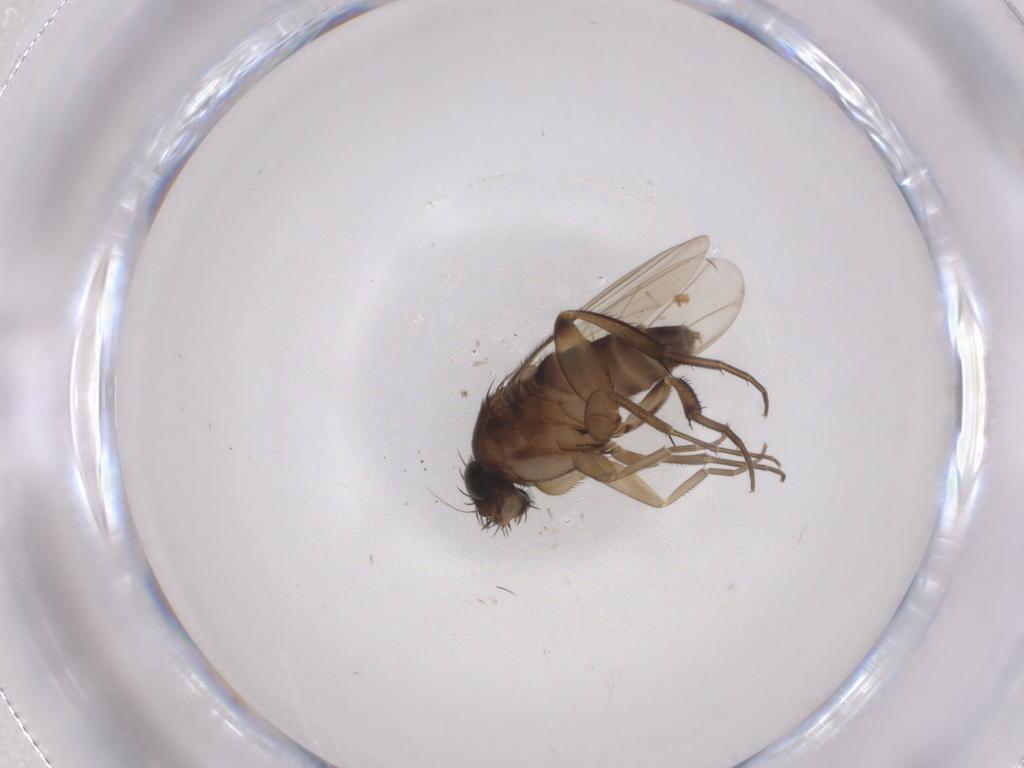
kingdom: Animalia
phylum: Arthropoda
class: Insecta
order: Diptera
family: Phoridae
